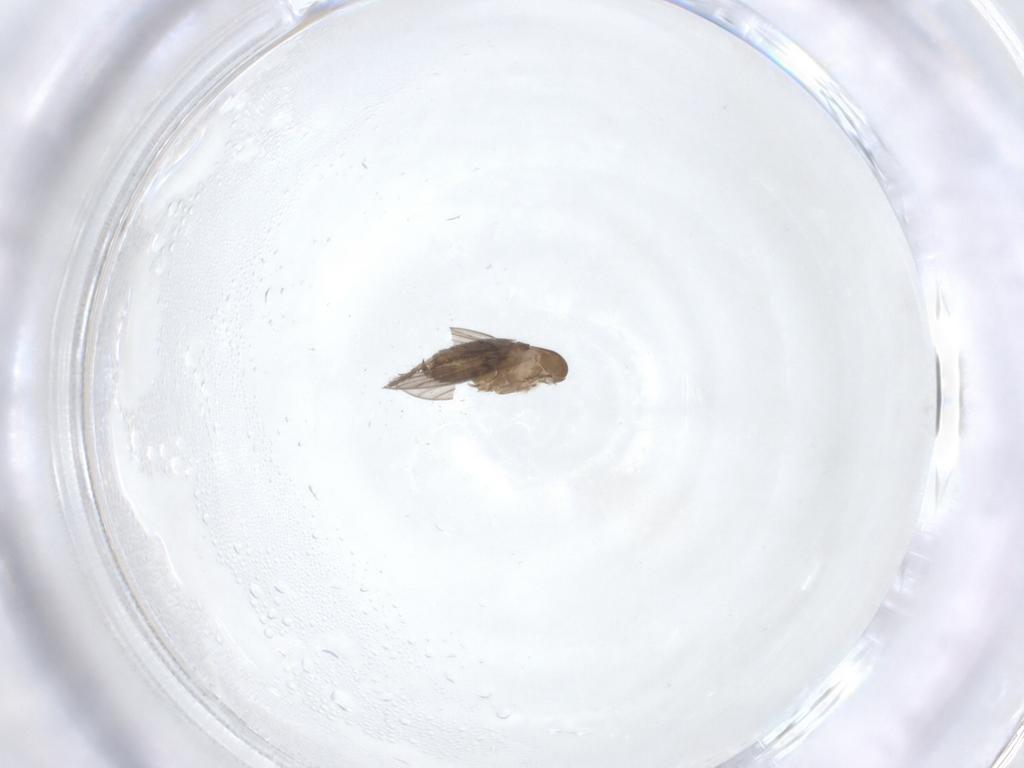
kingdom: Animalia
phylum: Arthropoda
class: Insecta
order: Diptera
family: Psychodidae
